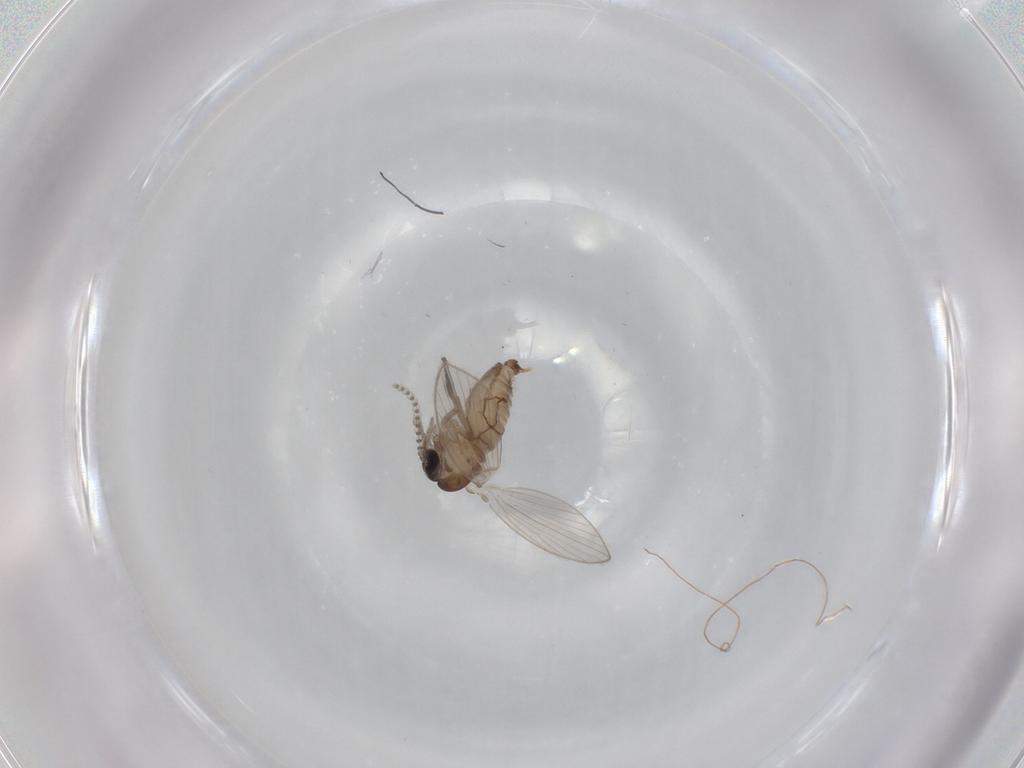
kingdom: Animalia
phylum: Arthropoda
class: Insecta
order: Diptera
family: Psychodidae
